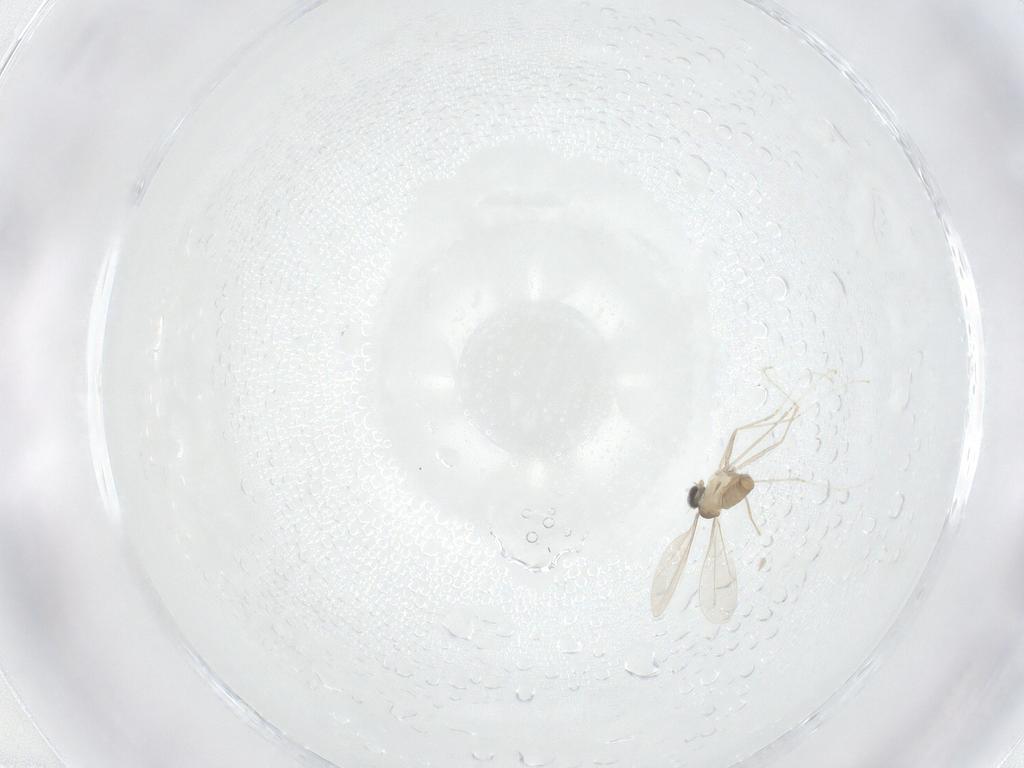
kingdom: Animalia
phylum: Arthropoda
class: Insecta
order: Diptera
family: Cecidomyiidae
